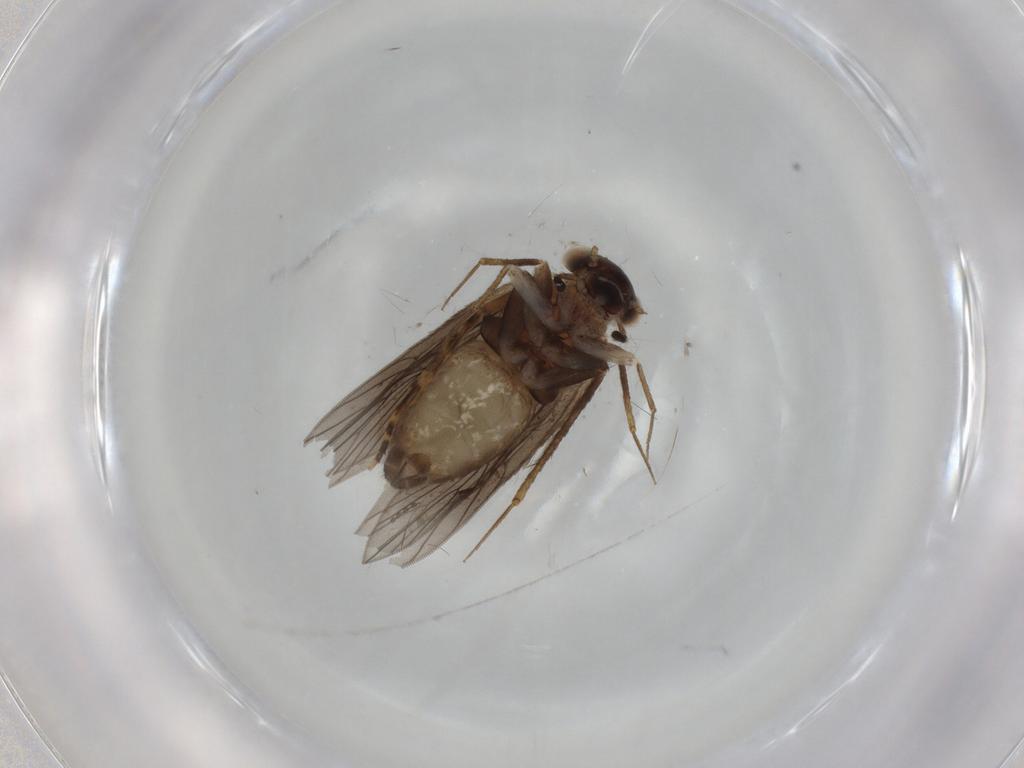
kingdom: Animalia
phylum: Arthropoda
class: Insecta
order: Psocodea
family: Lepidopsocidae
